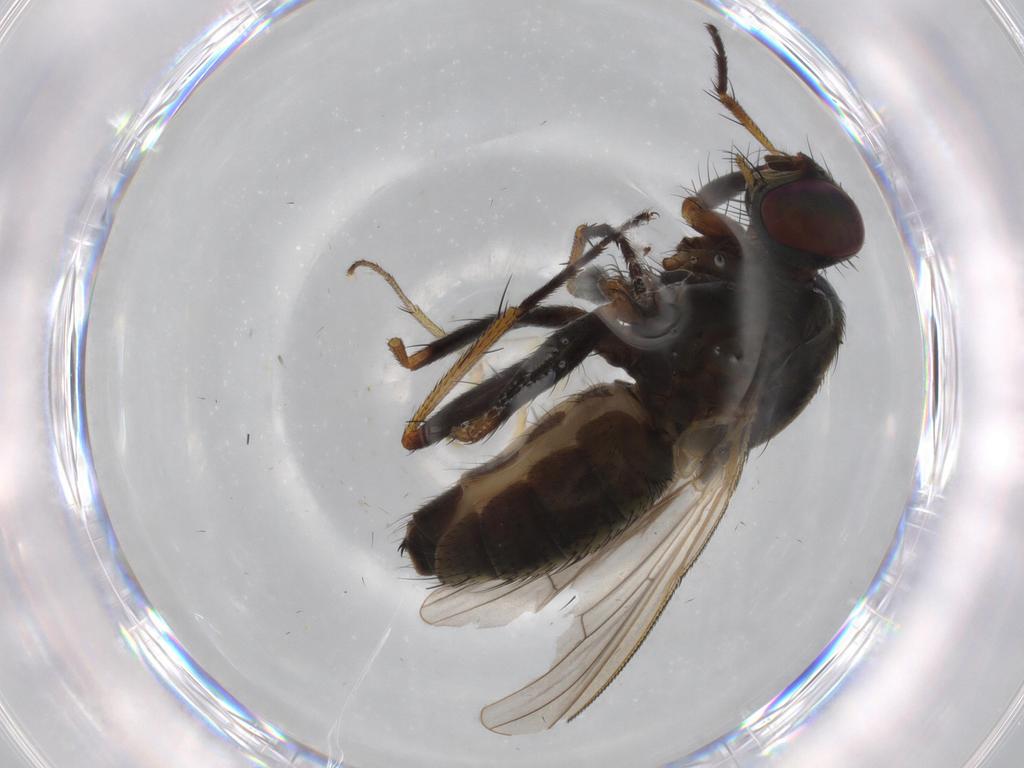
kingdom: Animalia
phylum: Arthropoda
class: Insecta
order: Diptera
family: Muscidae
